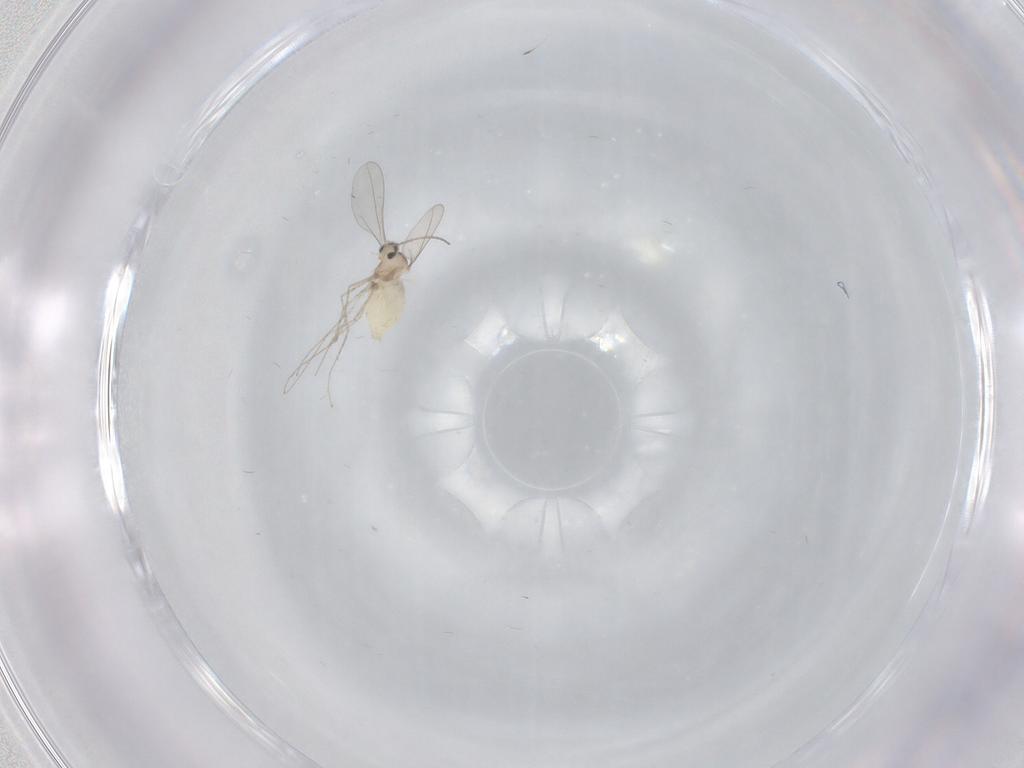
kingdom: Animalia
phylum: Arthropoda
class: Insecta
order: Diptera
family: Cecidomyiidae
